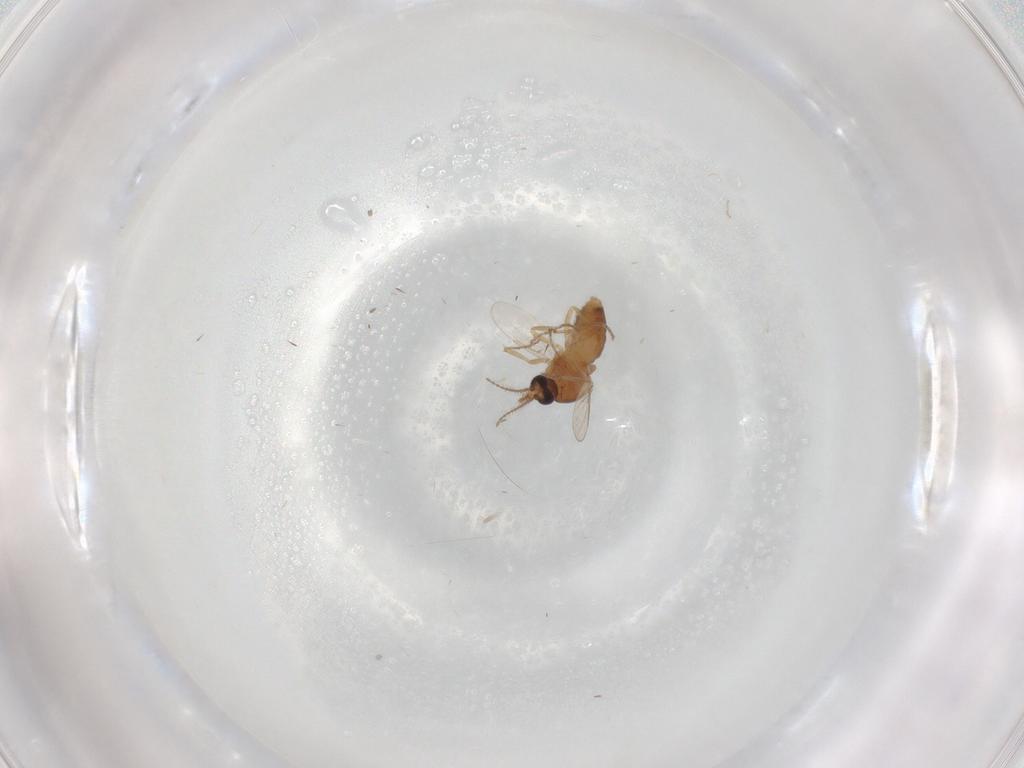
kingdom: Animalia
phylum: Arthropoda
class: Insecta
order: Diptera
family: Ceratopogonidae
